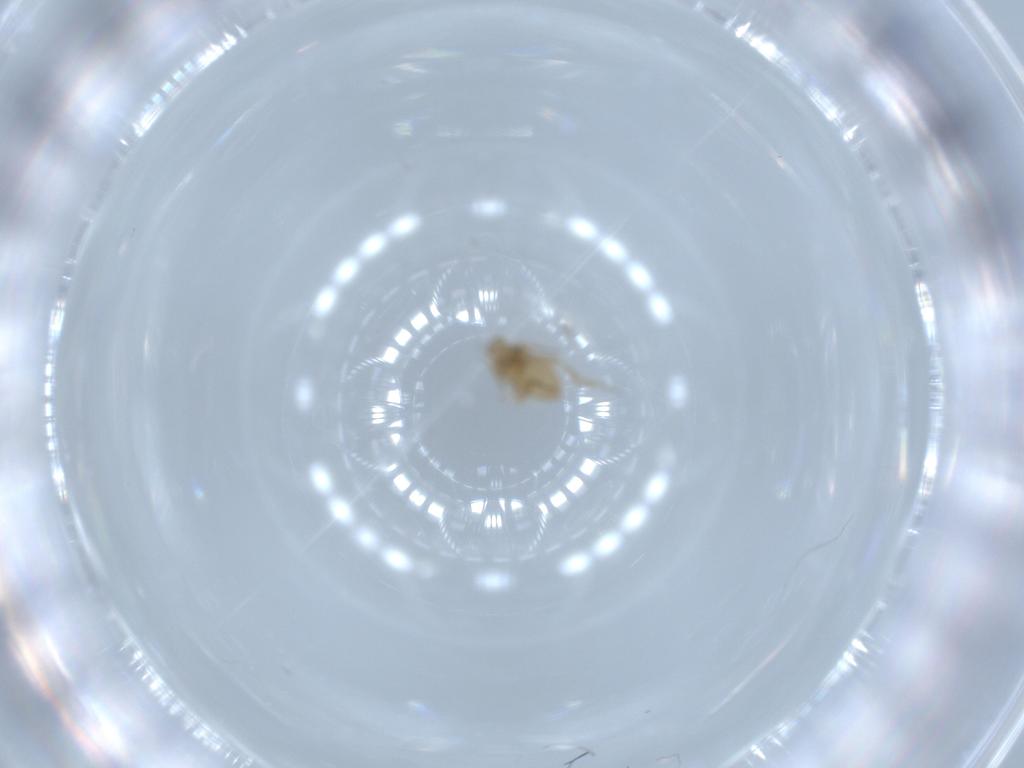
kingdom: Animalia
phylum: Arthropoda
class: Insecta
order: Diptera
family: Phoridae
